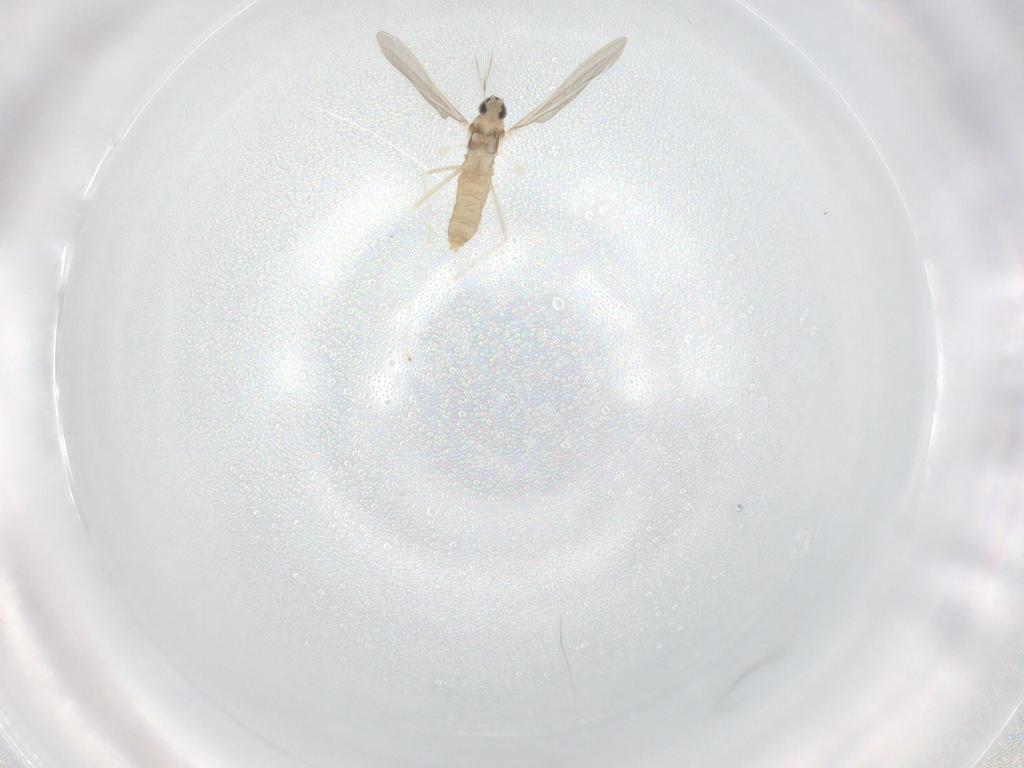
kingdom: Animalia
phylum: Arthropoda
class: Insecta
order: Diptera
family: Cecidomyiidae
